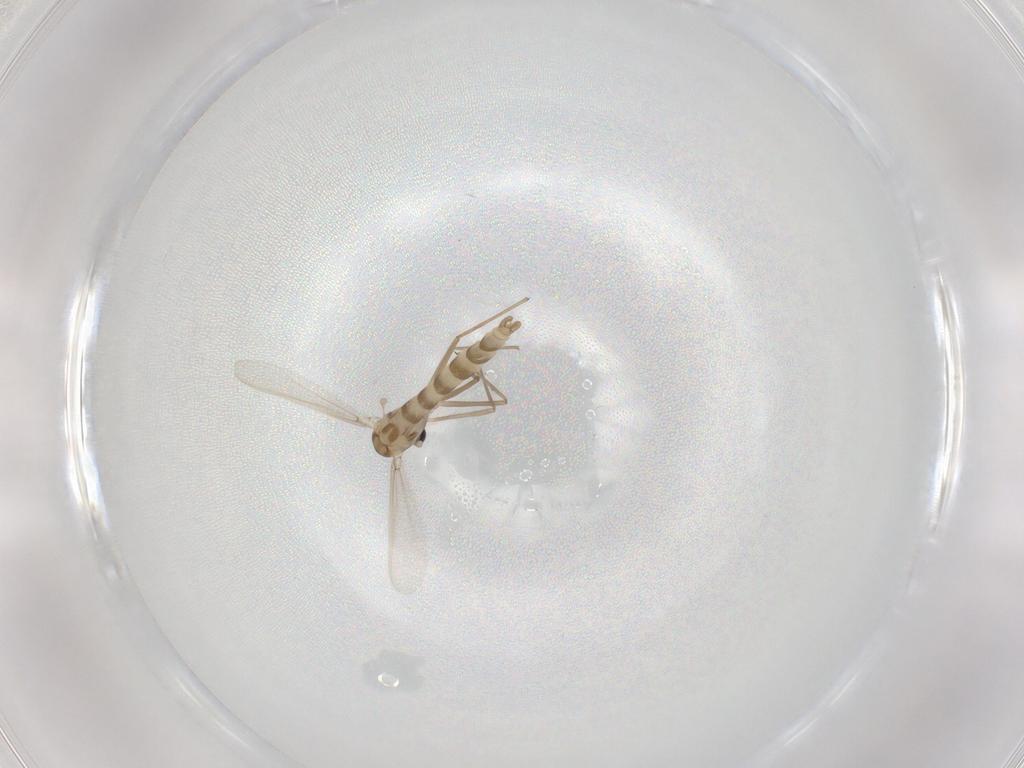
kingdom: Animalia
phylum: Arthropoda
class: Insecta
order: Diptera
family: Chironomidae
